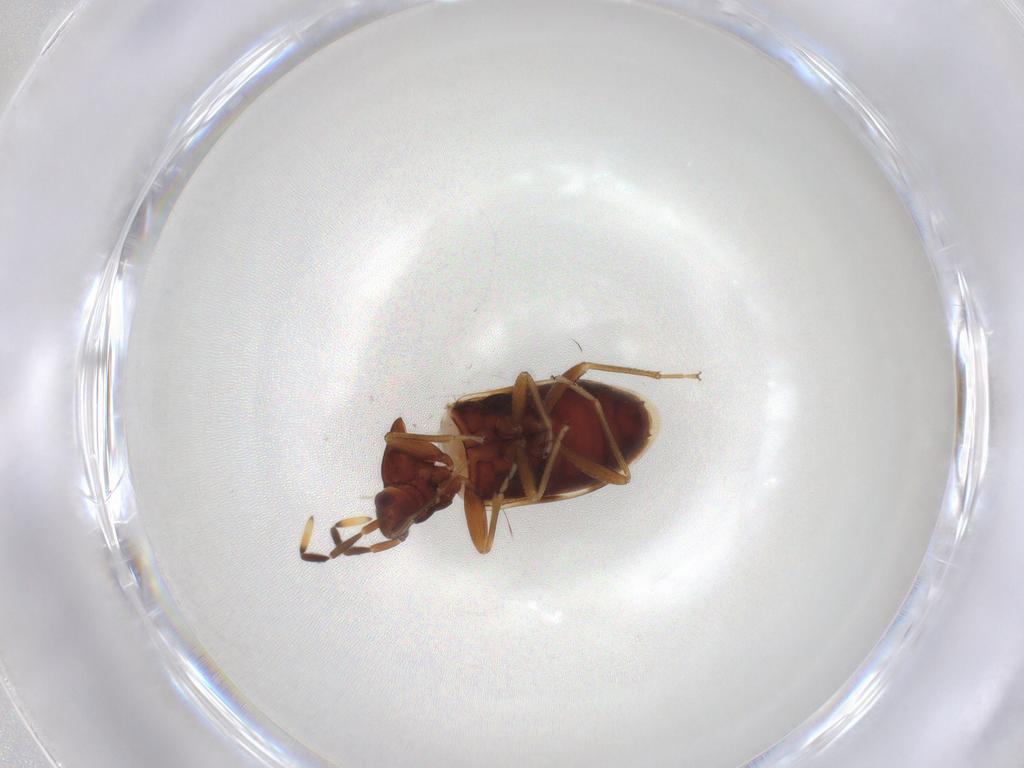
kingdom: Animalia
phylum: Arthropoda
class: Insecta
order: Hemiptera
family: Rhyparochromidae
